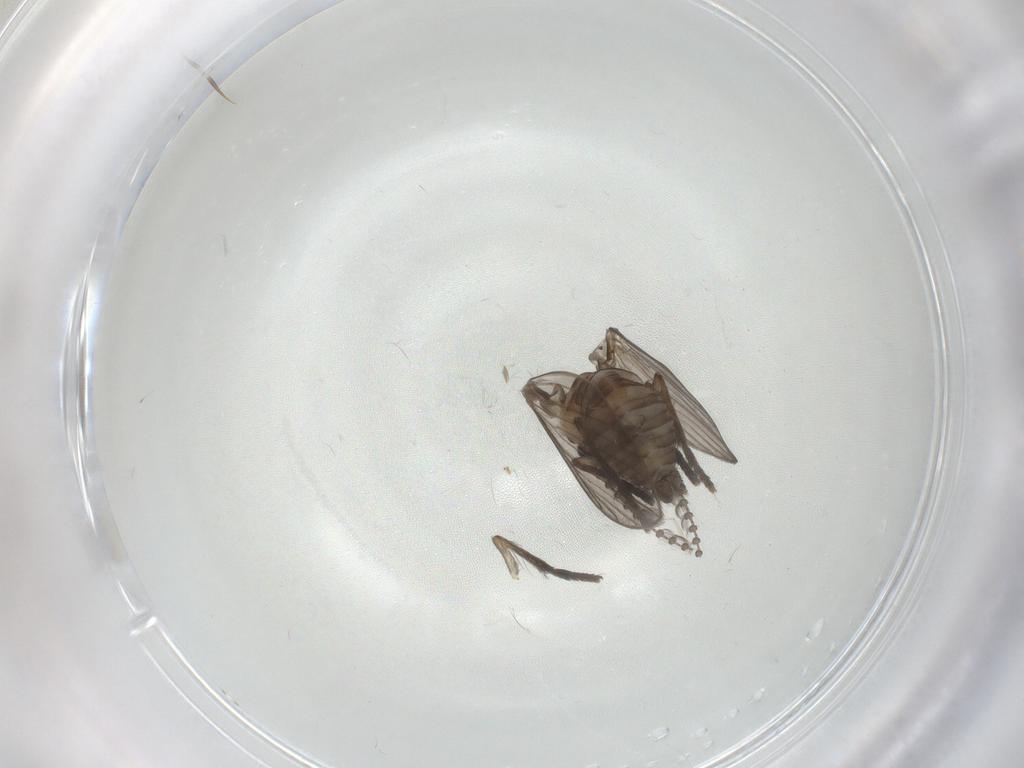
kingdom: Animalia
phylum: Arthropoda
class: Insecta
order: Diptera
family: Psychodidae
